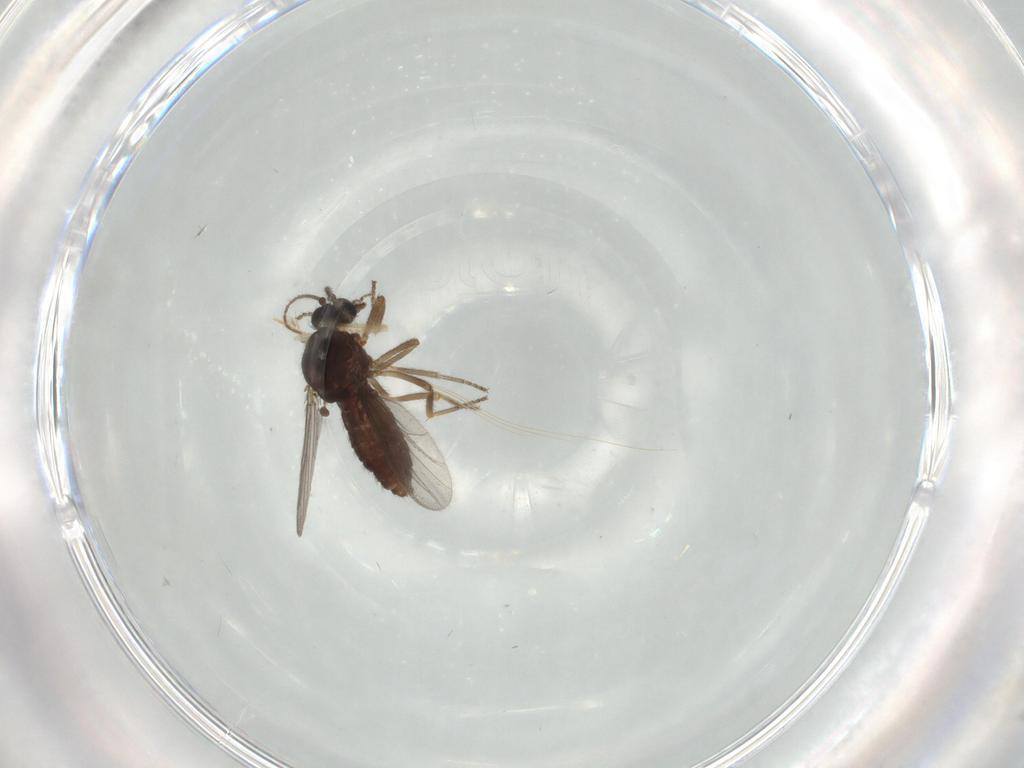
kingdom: Animalia
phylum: Arthropoda
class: Insecta
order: Diptera
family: Ceratopogonidae
